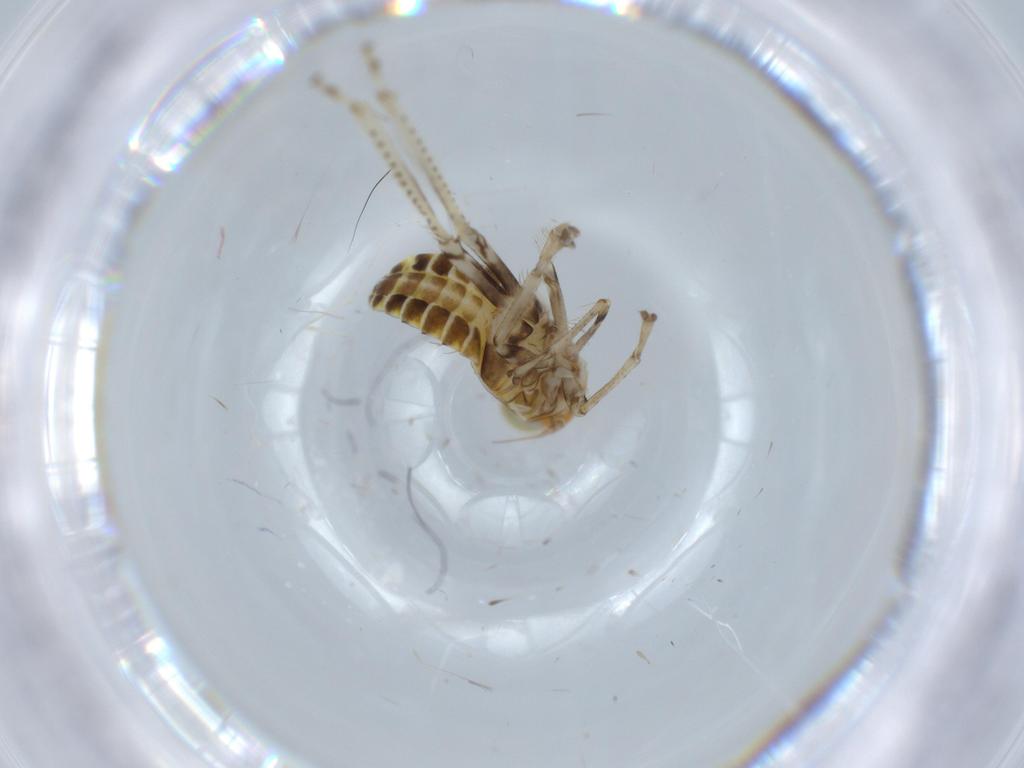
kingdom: Animalia
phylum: Arthropoda
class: Insecta
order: Hemiptera
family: Cicadellidae
